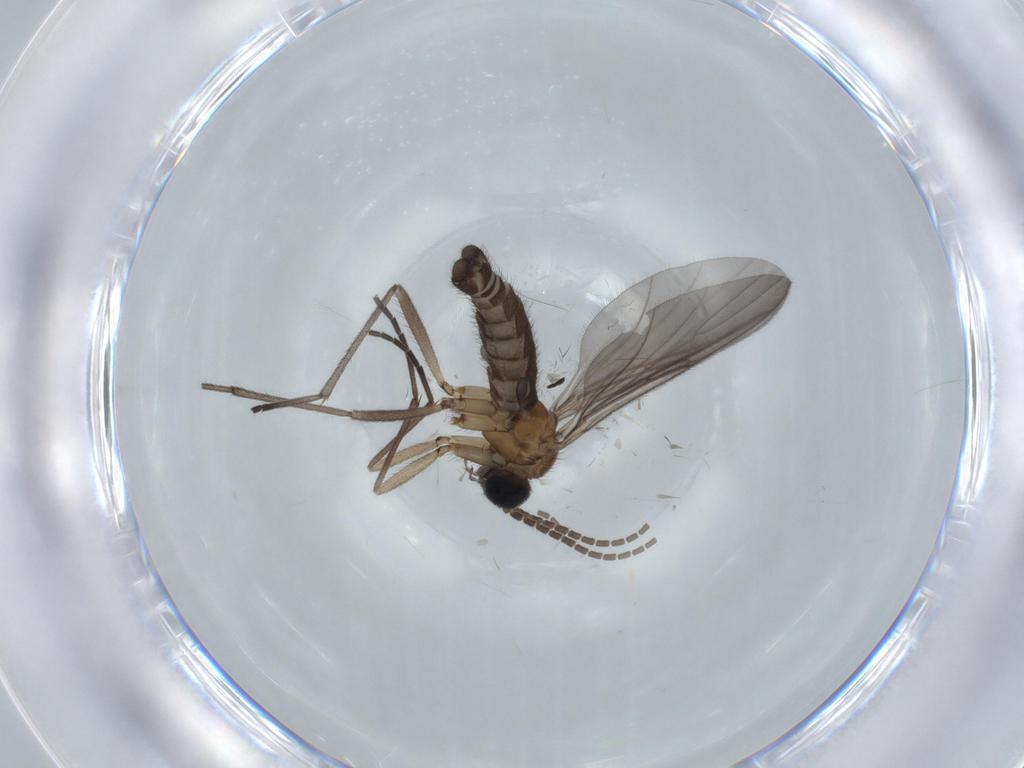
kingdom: Animalia
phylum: Arthropoda
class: Insecta
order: Diptera
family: Sciaridae
